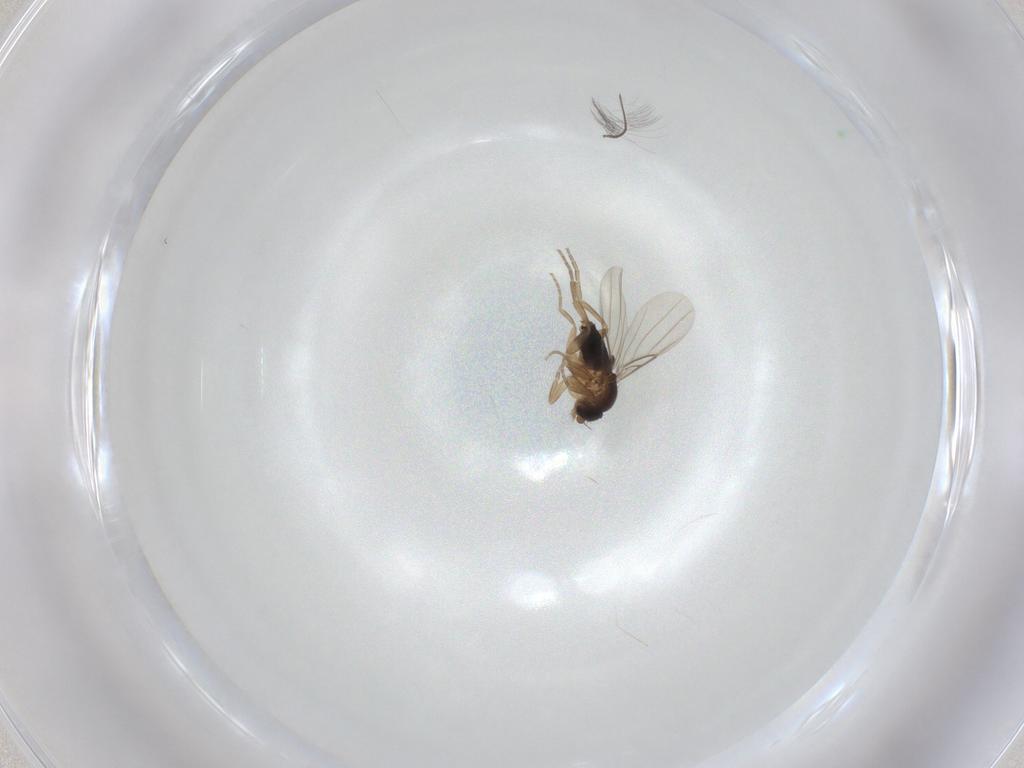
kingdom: Animalia
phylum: Arthropoda
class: Insecta
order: Diptera
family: Chironomidae
